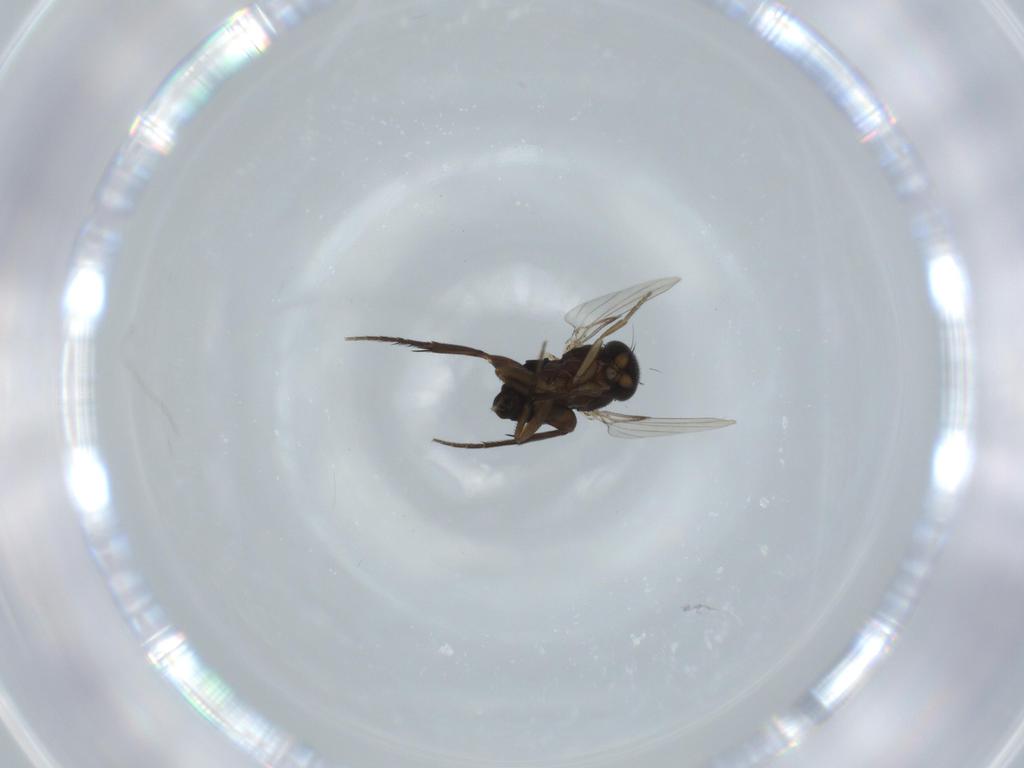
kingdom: Animalia
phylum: Arthropoda
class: Insecta
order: Diptera
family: Phoridae
